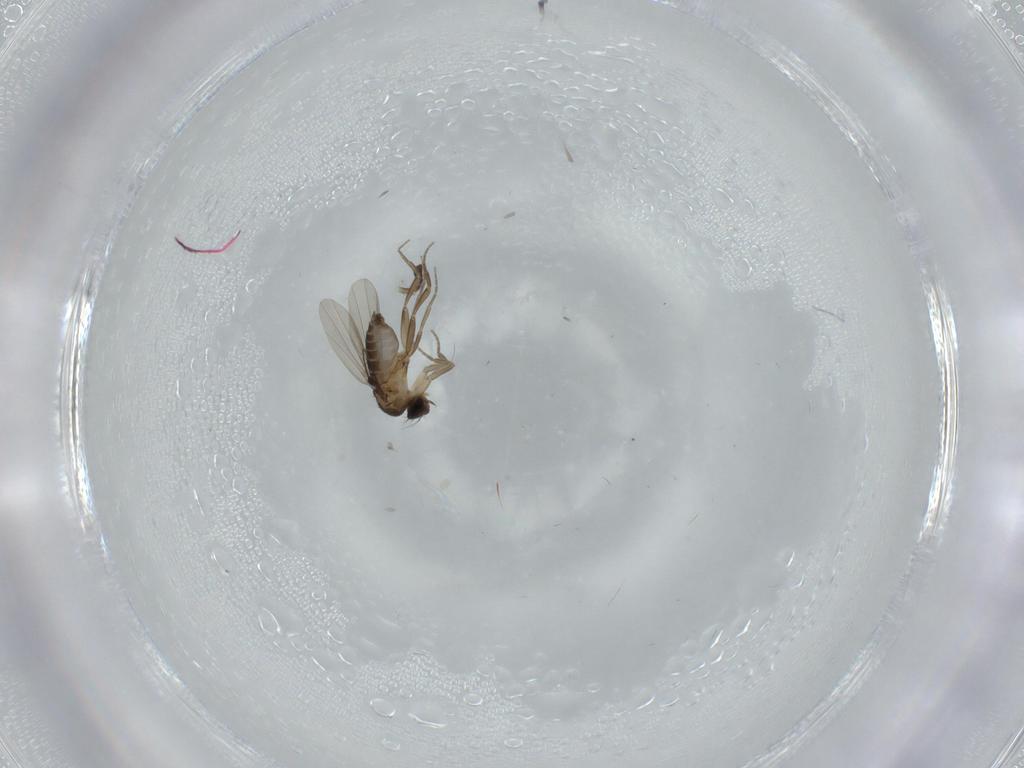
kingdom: Animalia
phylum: Arthropoda
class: Insecta
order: Diptera
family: Phoridae
